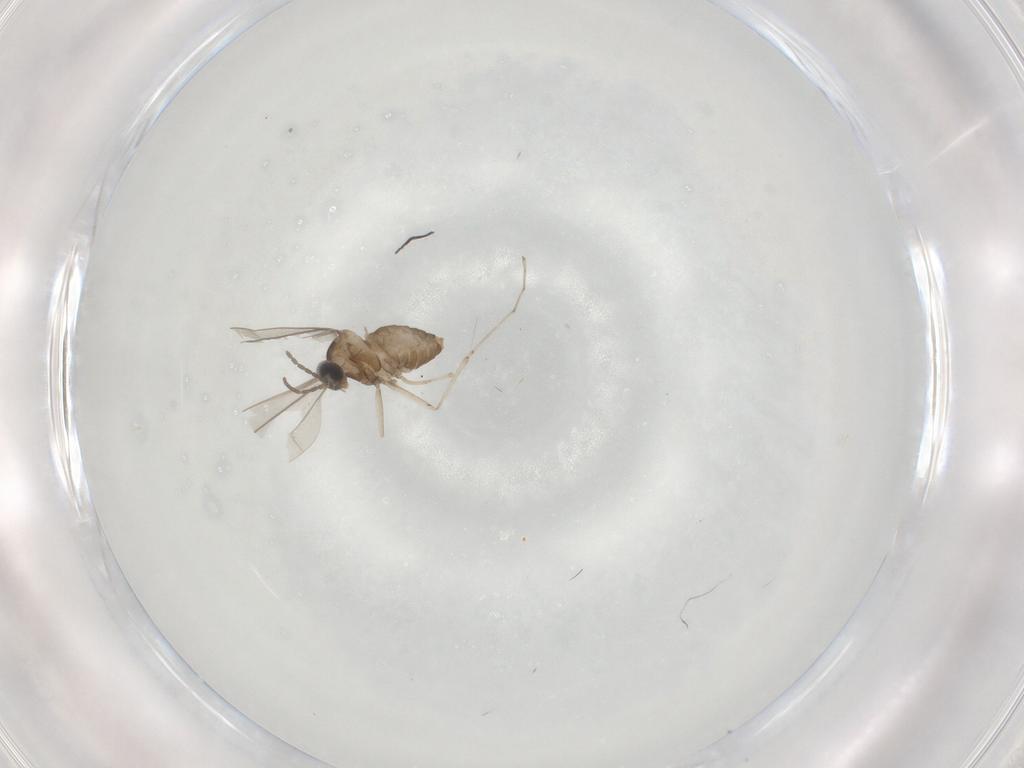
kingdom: Animalia
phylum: Arthropoda
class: Insecta
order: Diptera
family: Cecidomyiidae
